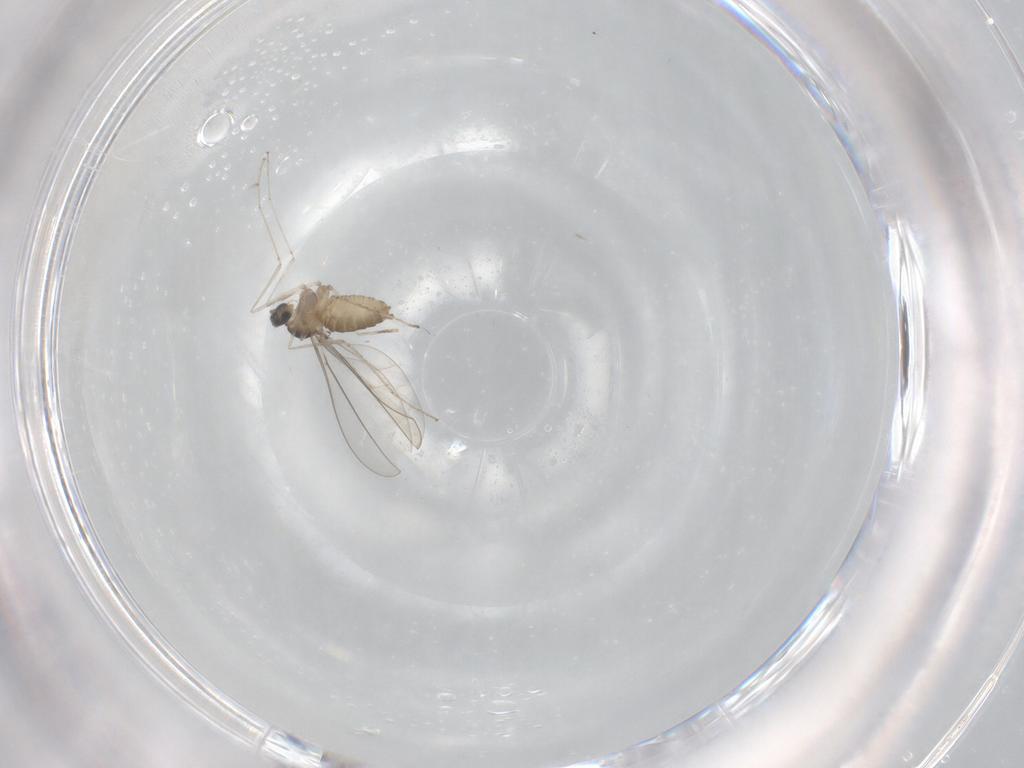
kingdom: Animalia
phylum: Arthropoda
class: Insecta
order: Diptera
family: Cecidomyiidae
